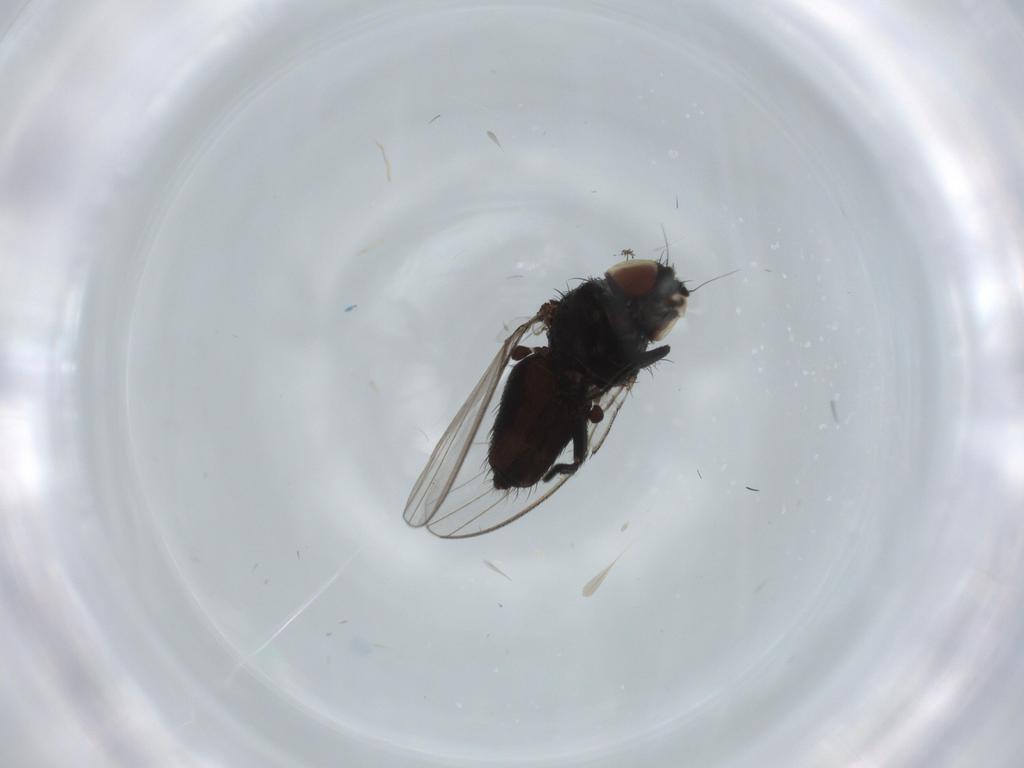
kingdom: Animalia
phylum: Arthropoda
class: Insecta
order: Diptera
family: Milichiidae
